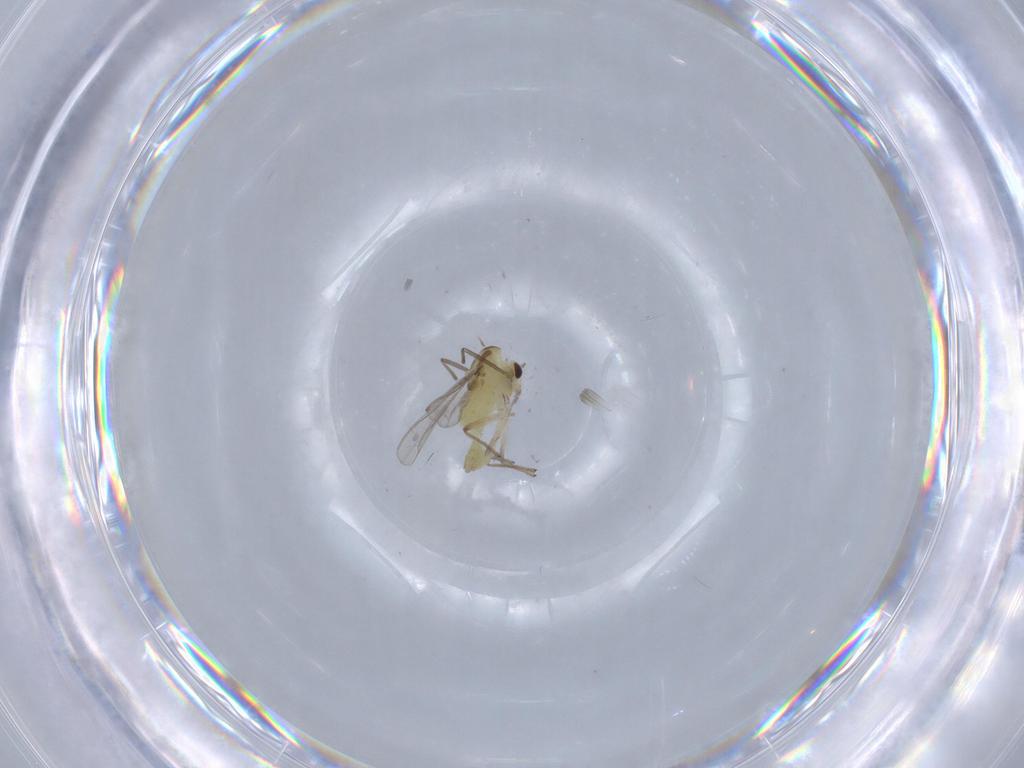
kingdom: Animalia
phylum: Arthropoda
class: Insecta
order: Diptera
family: Chironomidae
